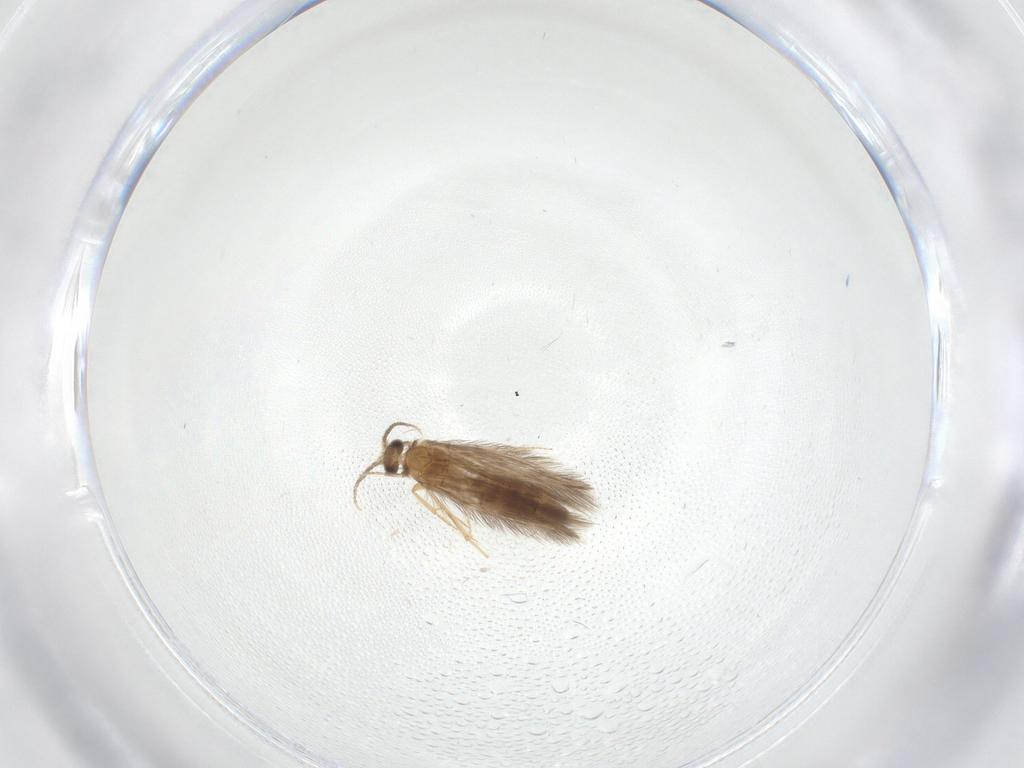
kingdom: Animalia
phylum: Arthropoda
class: Insecta
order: Trichoptera
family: Hydroptilidae
